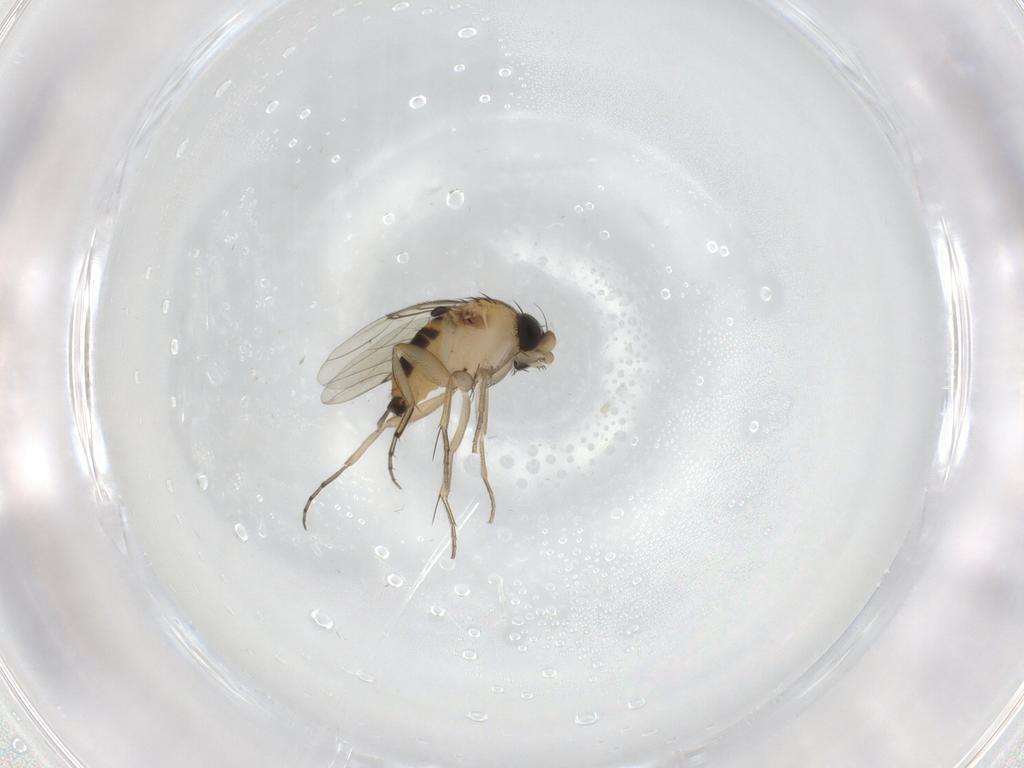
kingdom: Animalia
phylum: Arthropoda
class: Insecta
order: Diptera
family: Phoridae
